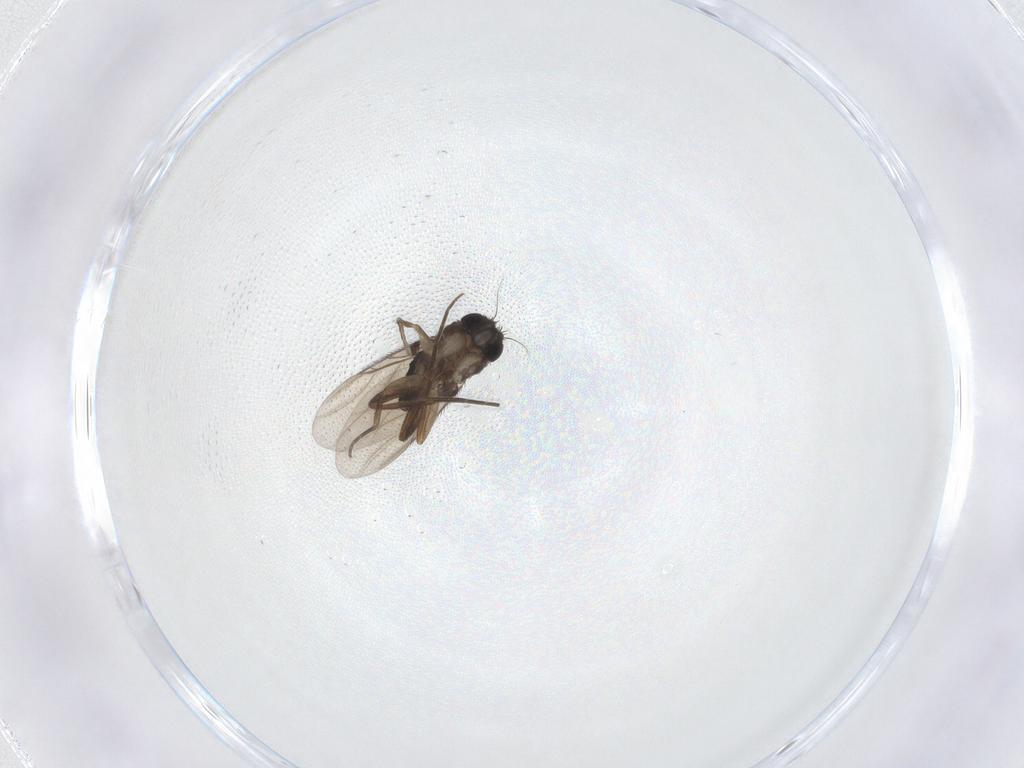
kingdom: Animalia
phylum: Arthropoda
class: Insecta
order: Diptera
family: Phoridae
